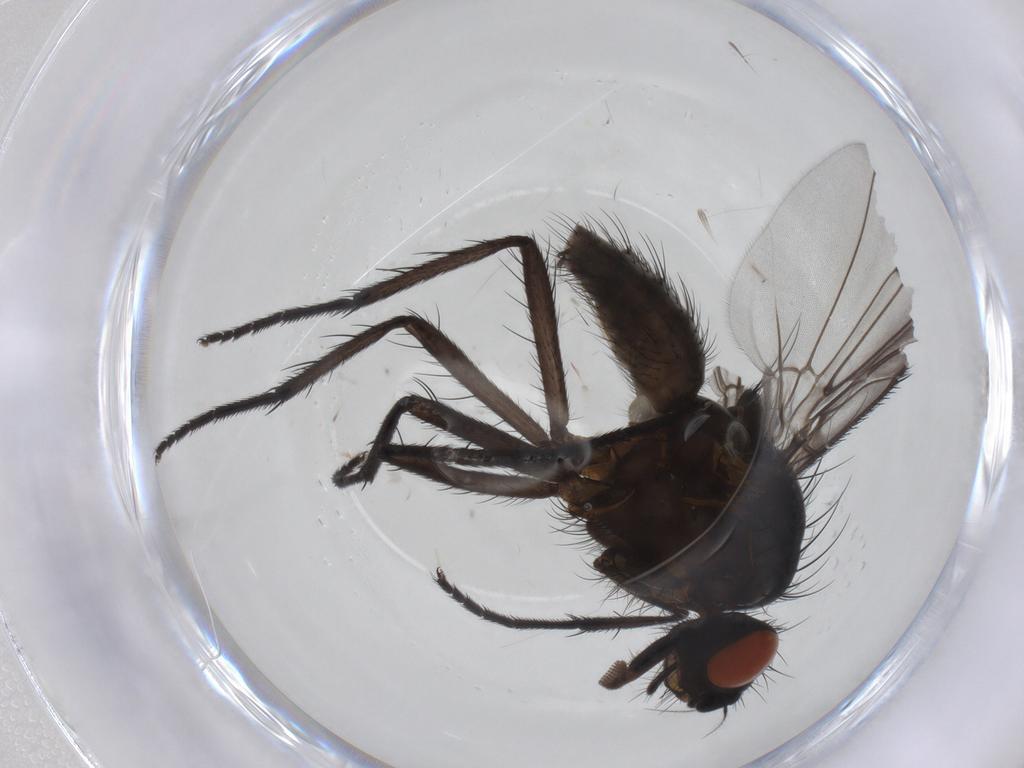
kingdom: Animalia
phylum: Arthropoda
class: Insecta
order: Diptera
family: Anthomyiidae
